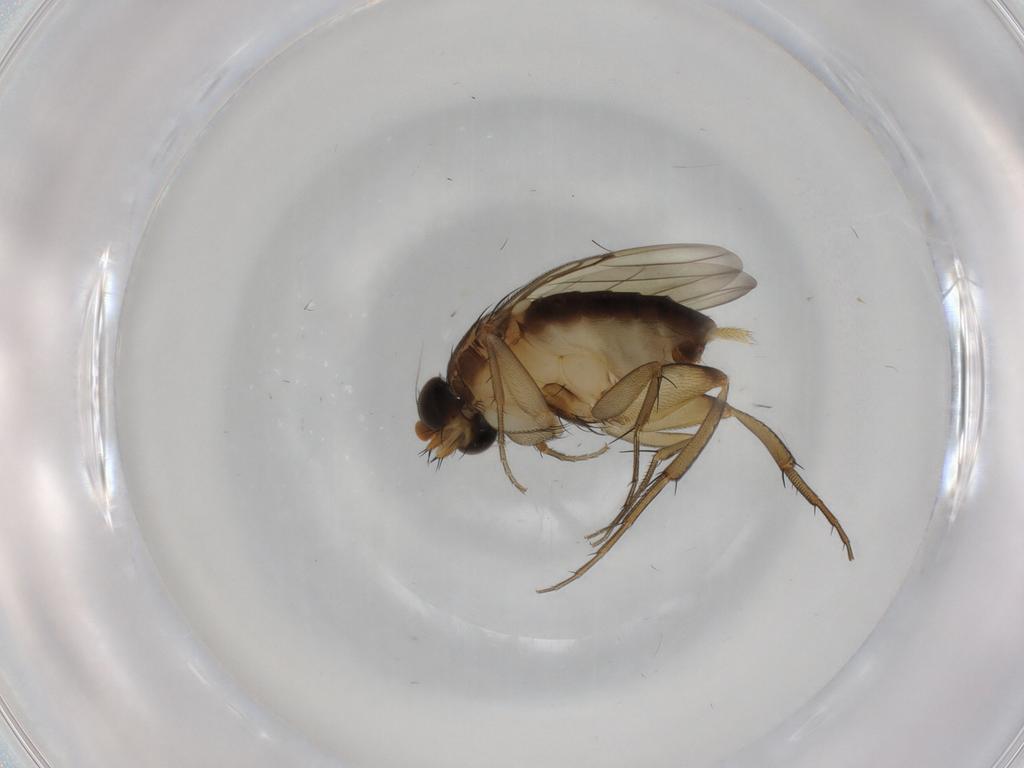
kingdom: Animalia
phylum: Arthropoda
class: Insecta
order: Diptera
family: Phoridae
